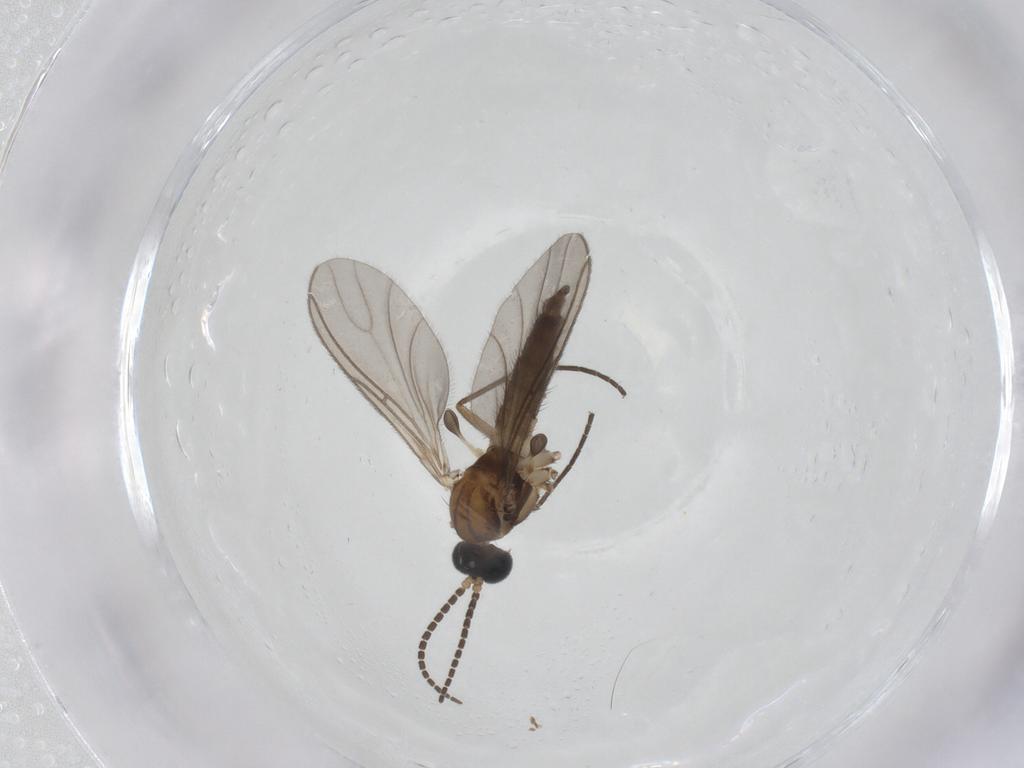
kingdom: Animalia
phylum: Arthropoda
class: Insecta
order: Diptera
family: Sciaridae
